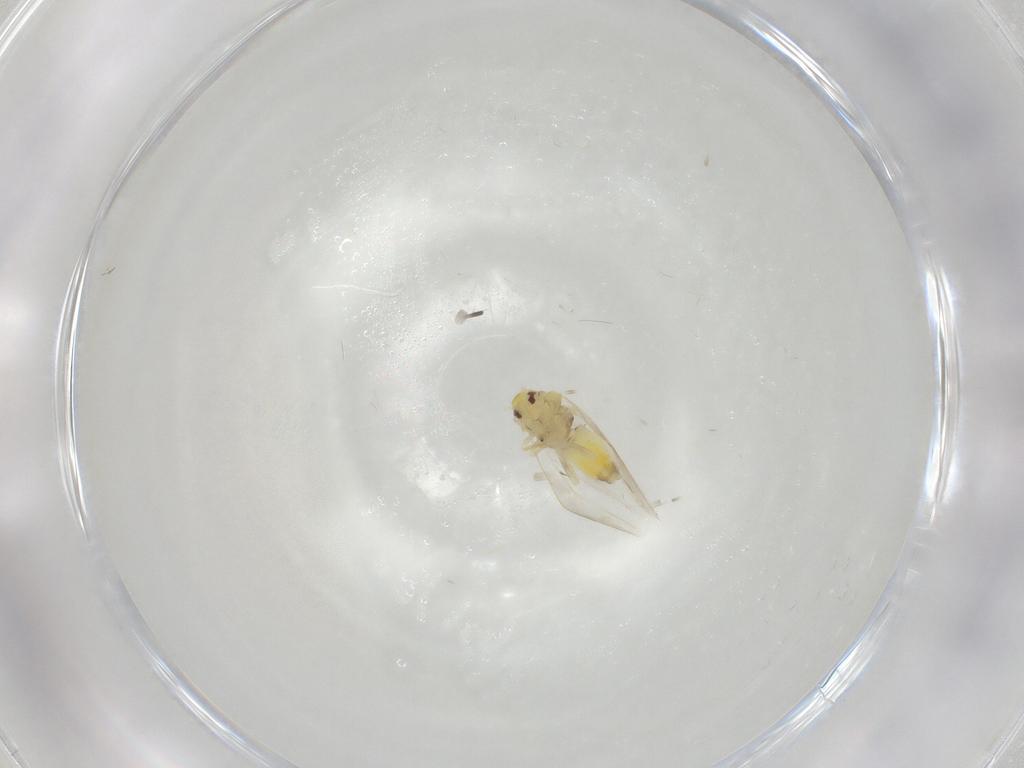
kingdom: Animalia
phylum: Arthropoda
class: Insecta
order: Hemiptera
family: Aleyrodidae
